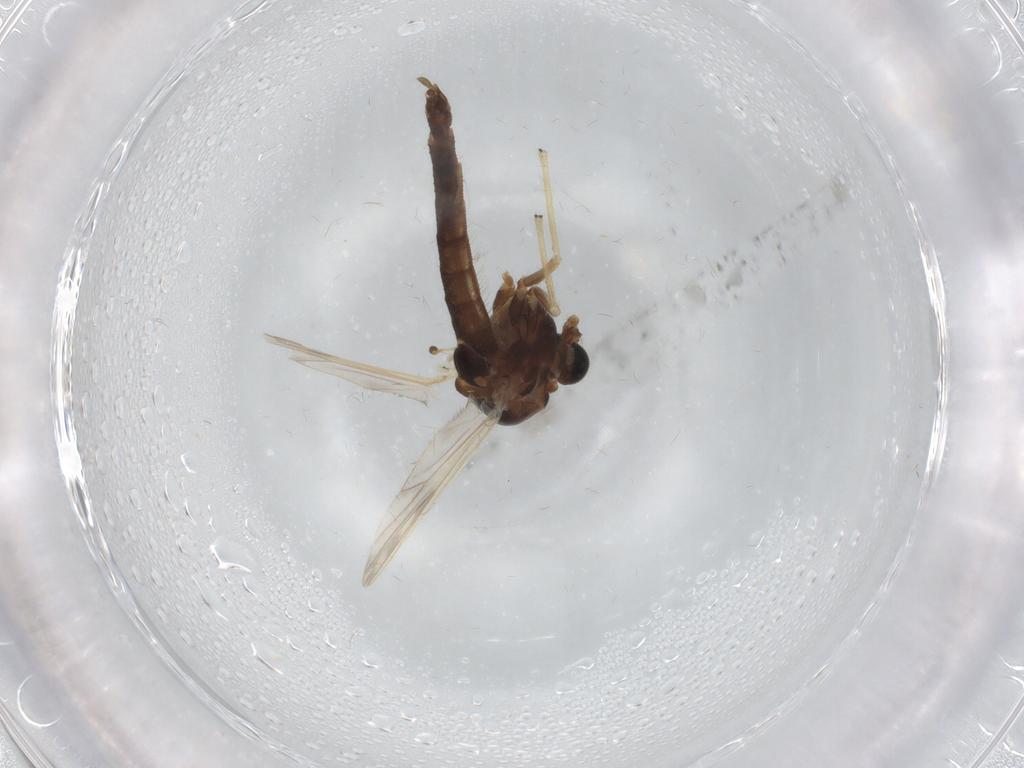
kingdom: Animalia
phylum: Arthropoda
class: Insecta
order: Diptera
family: Chironomidae
